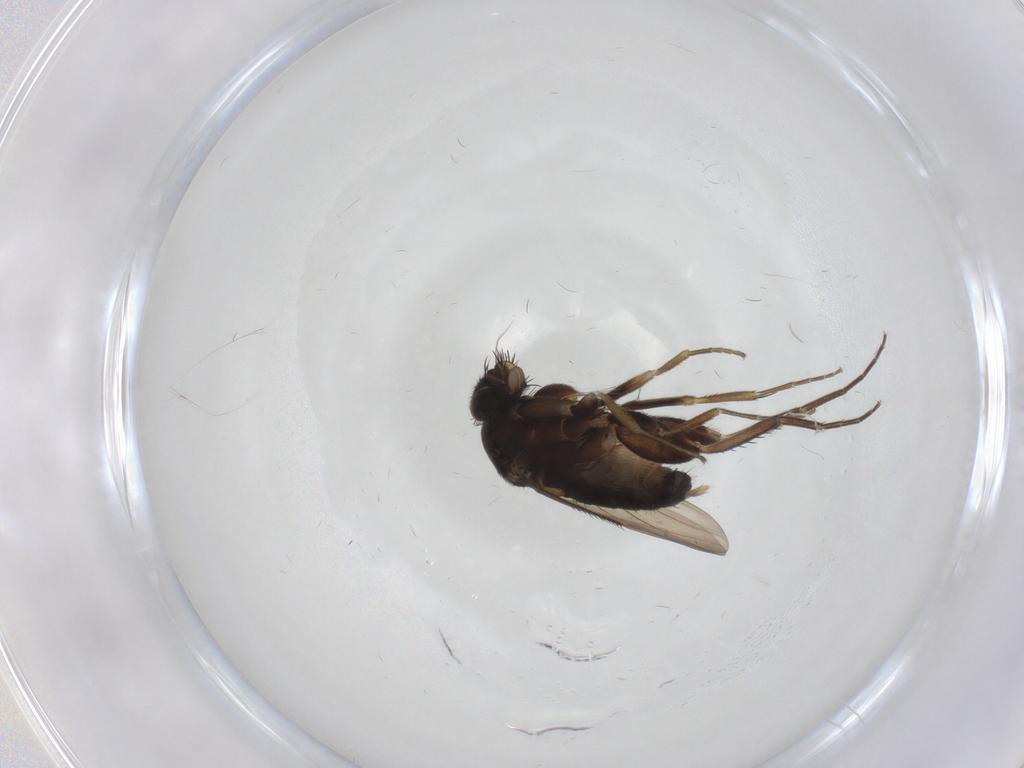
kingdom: Animalia
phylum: Arthropoda
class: Insecta
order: Diptera
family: Phoridae
